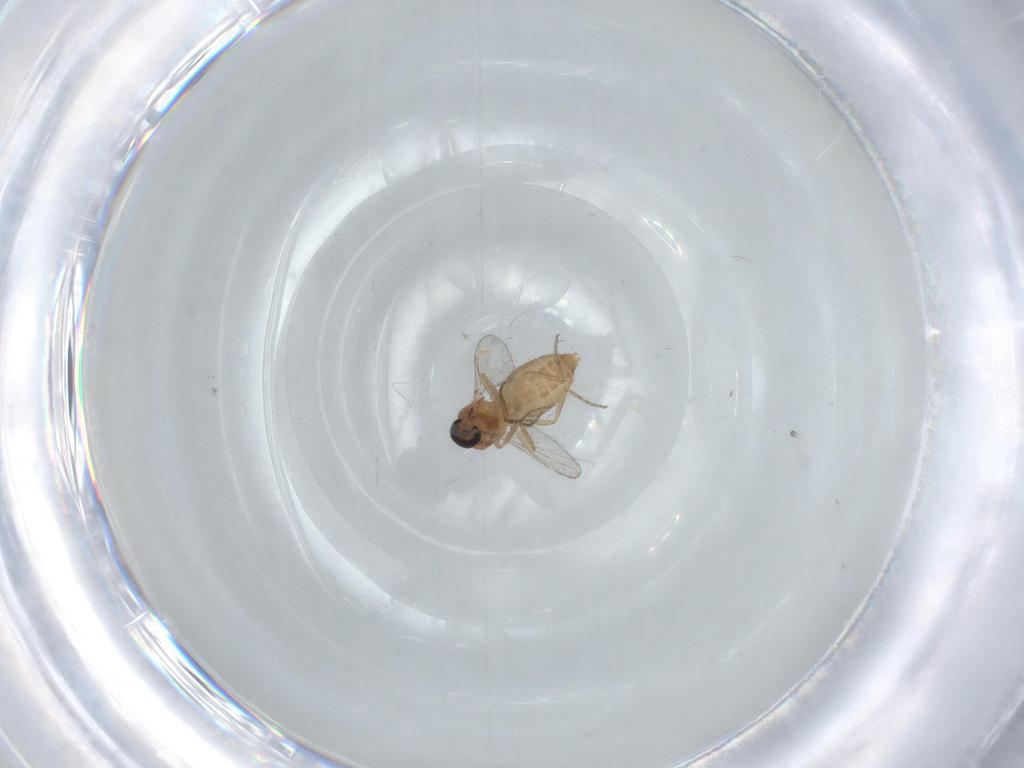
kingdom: Animalia
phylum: Arthropoda
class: Insecta
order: Diptera
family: Ceratopogonidae
